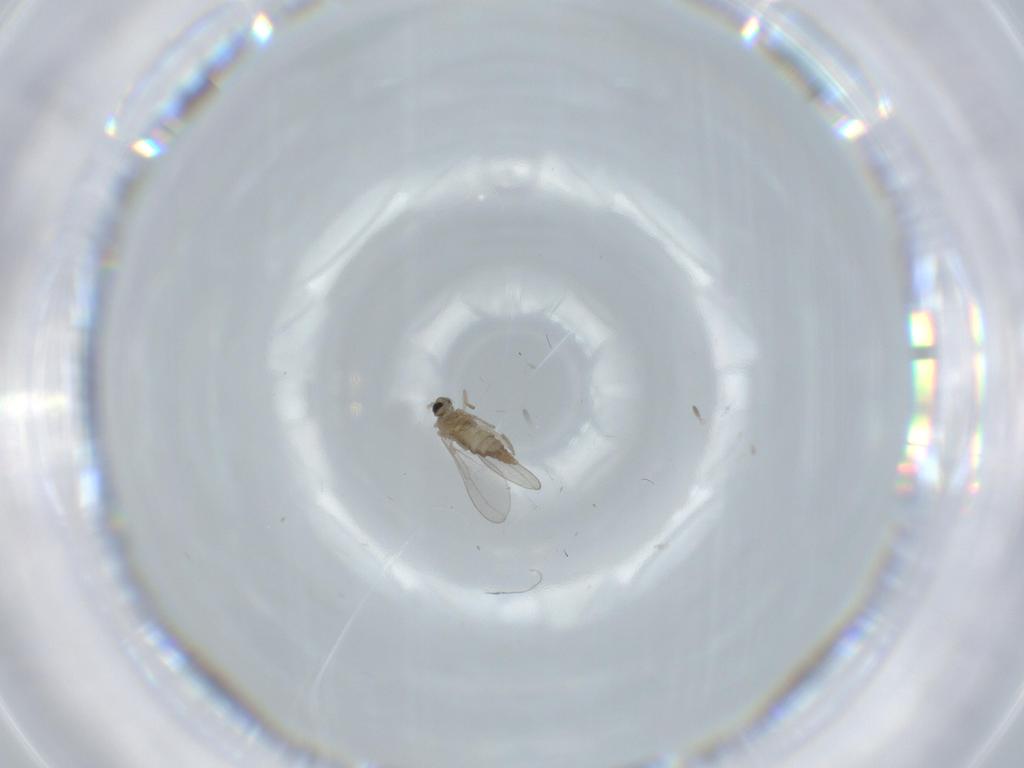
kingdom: Animalia
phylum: Arthropoda
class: Insecta
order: Diptera
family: Cecidomyiidae
